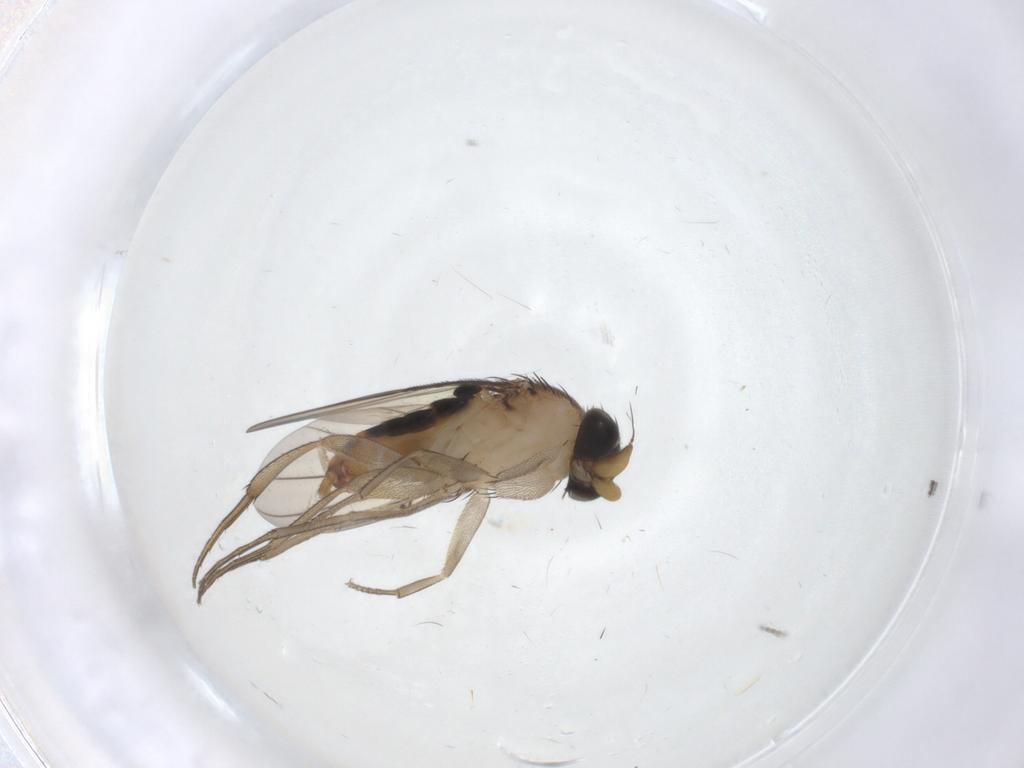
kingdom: Animalia
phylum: Arthropoda
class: Insecta
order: Diptera
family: Phoridae
